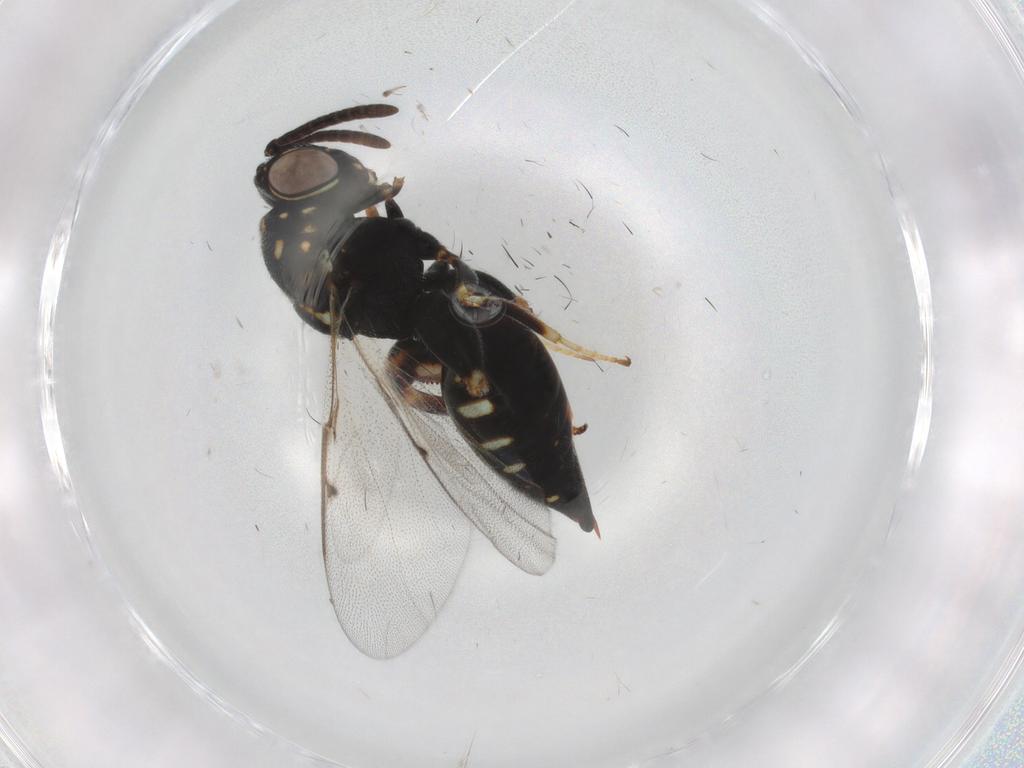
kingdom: Animalia
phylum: Arthropoda
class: Insecta
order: Hymenoptera
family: Chalcididae
